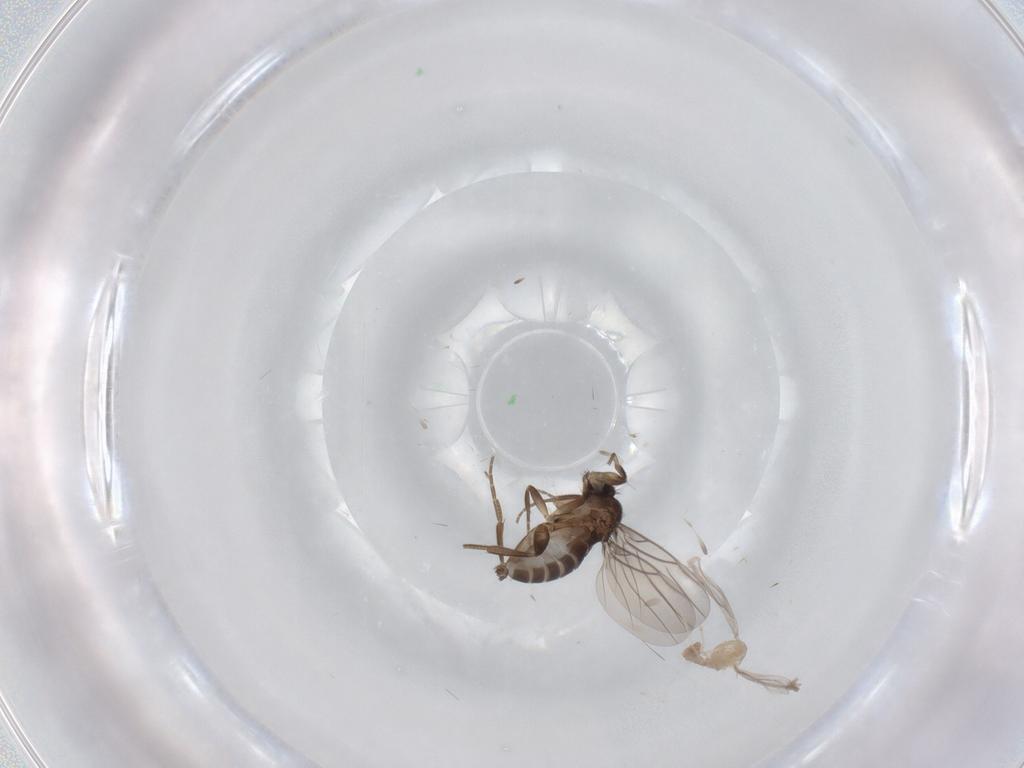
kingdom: Animalia
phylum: Arthropoda
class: Insecta
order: Diptera
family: Cecidomyiidae
